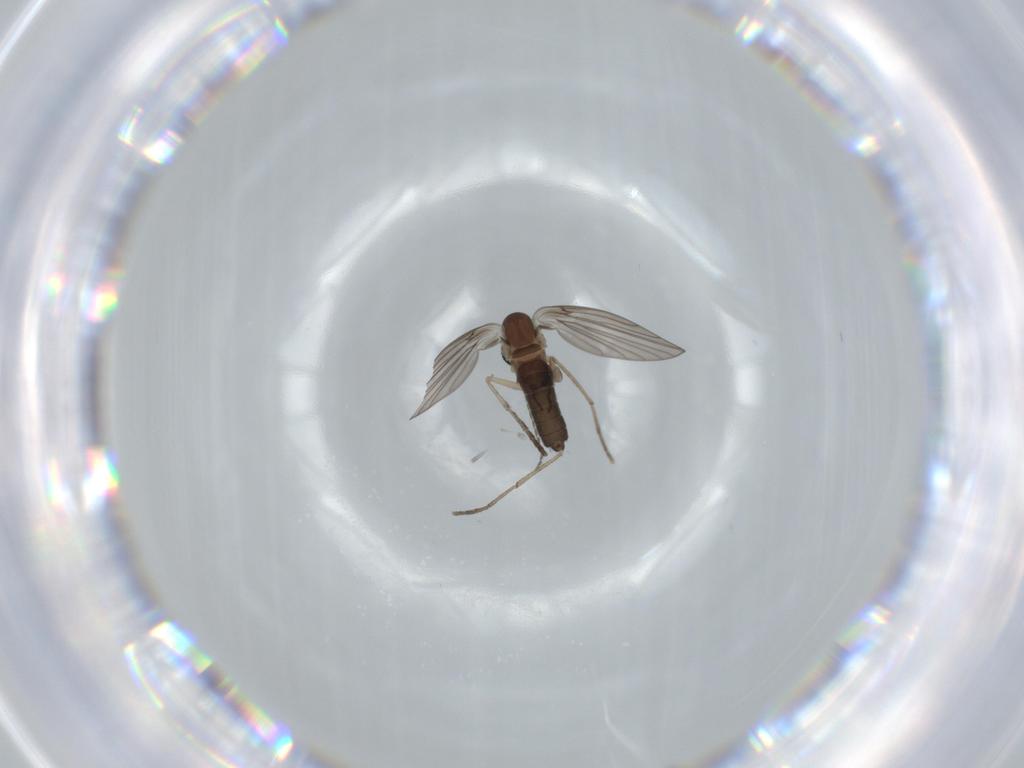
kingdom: Animalia
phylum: Arthropoda
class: Insecta
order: Diptera
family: Psychodidae
